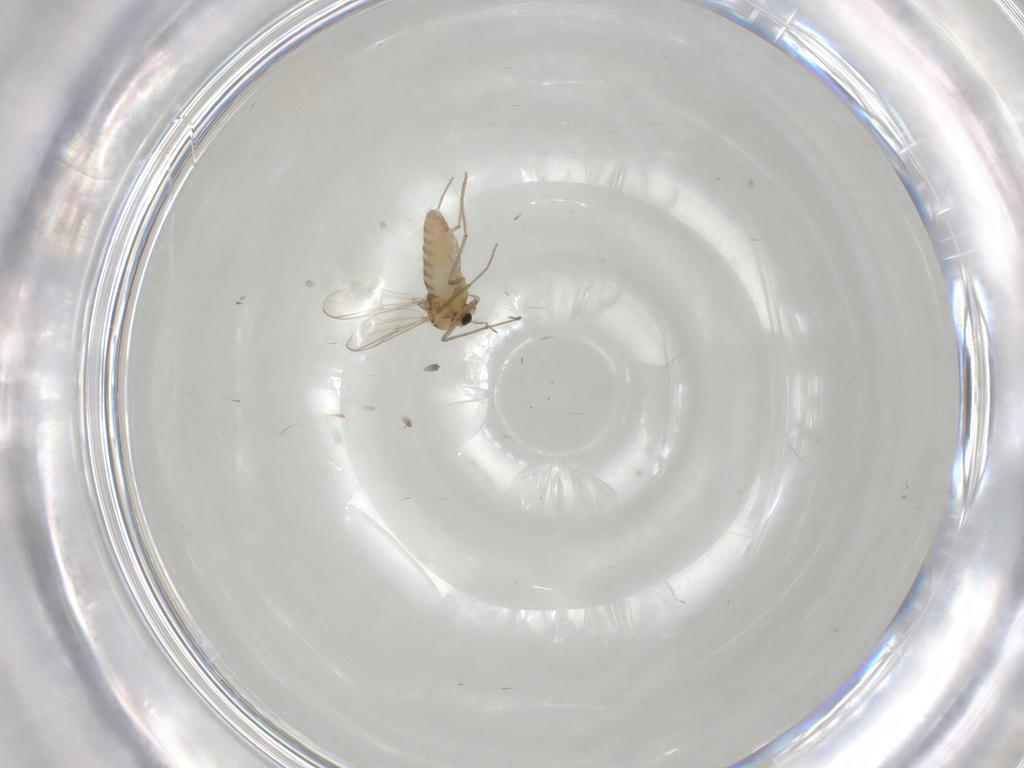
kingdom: Animalia
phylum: Arthropoda
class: Insecta
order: Diptera
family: Chironomidae
